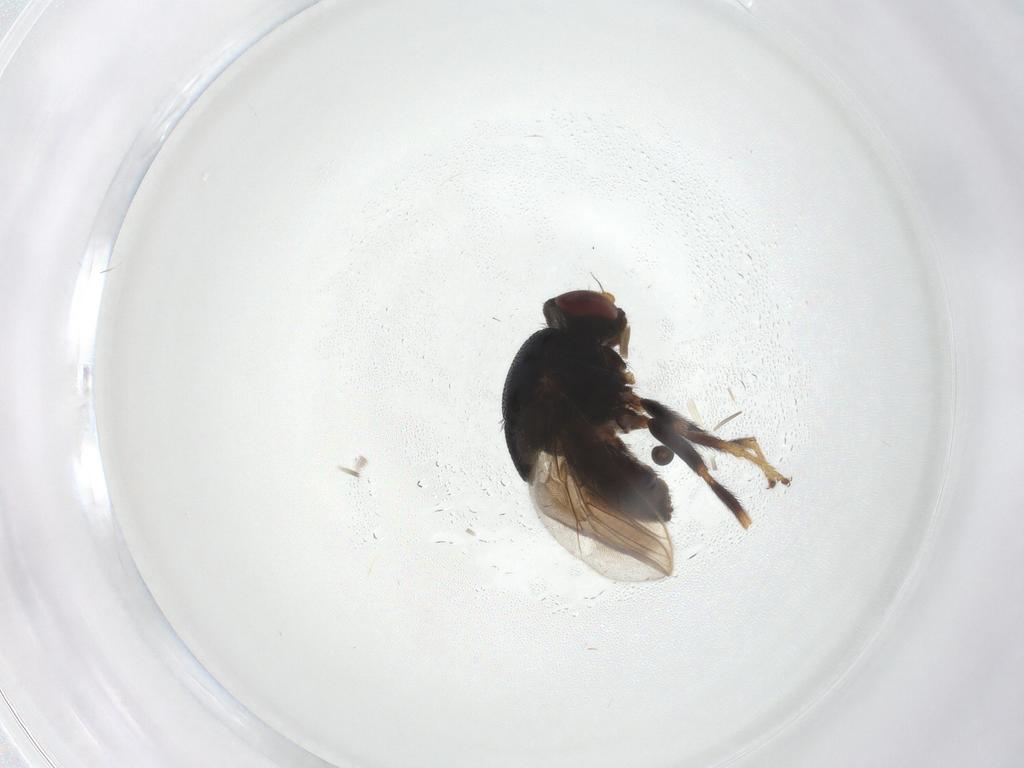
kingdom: Animalia
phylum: Arthropoda
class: Insecta
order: Diptera
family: Chloropidae
